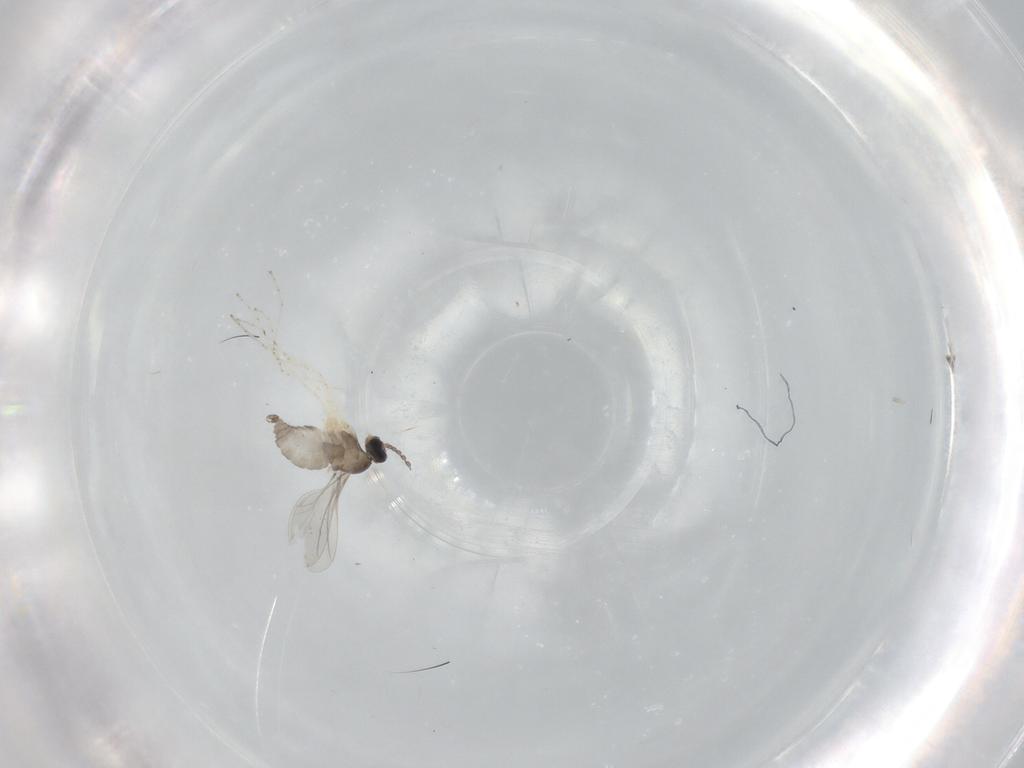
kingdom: Animalia
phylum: Arthropoda
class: Insecta
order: Diptera
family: Cecidomyiidae
